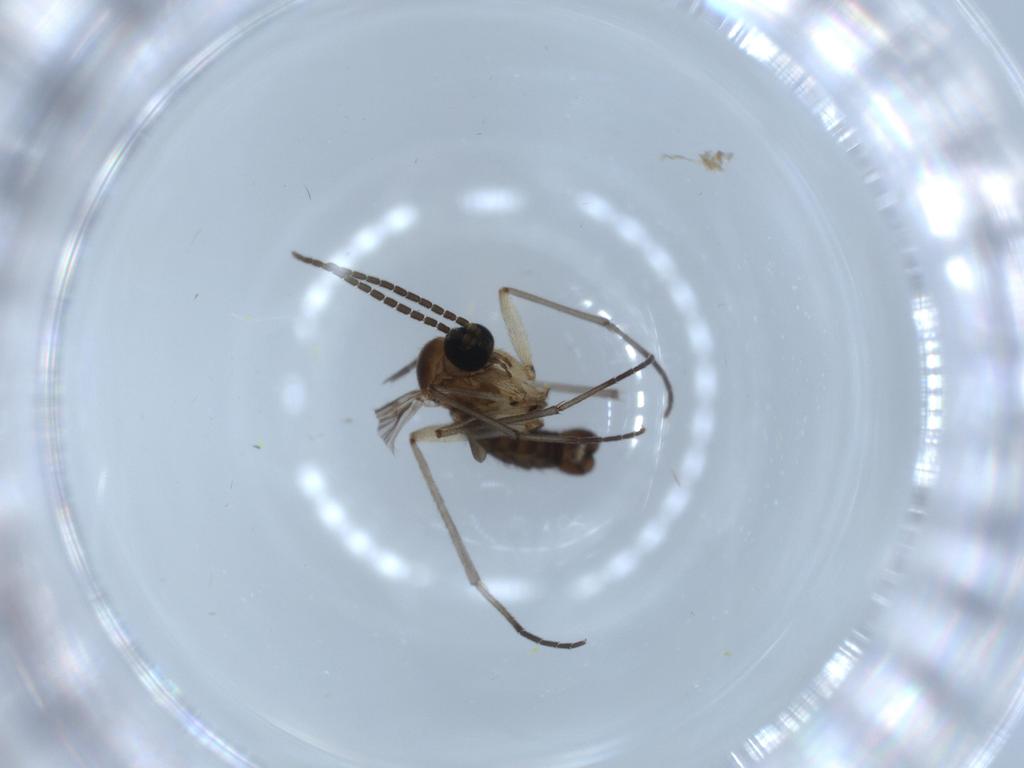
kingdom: Animalia
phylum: Arthropoda
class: Insecta
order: Diptera
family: Sciaridae
